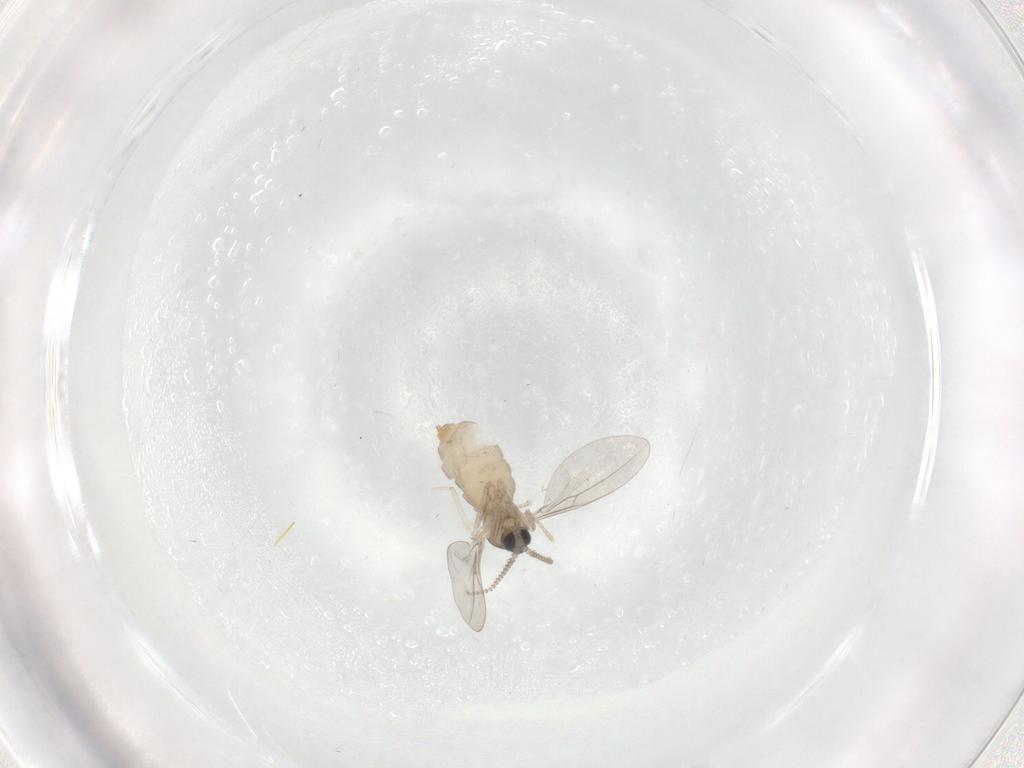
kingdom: Animalia
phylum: Arthropoda
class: Insecta
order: Diptera
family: Cecidomyiidae
